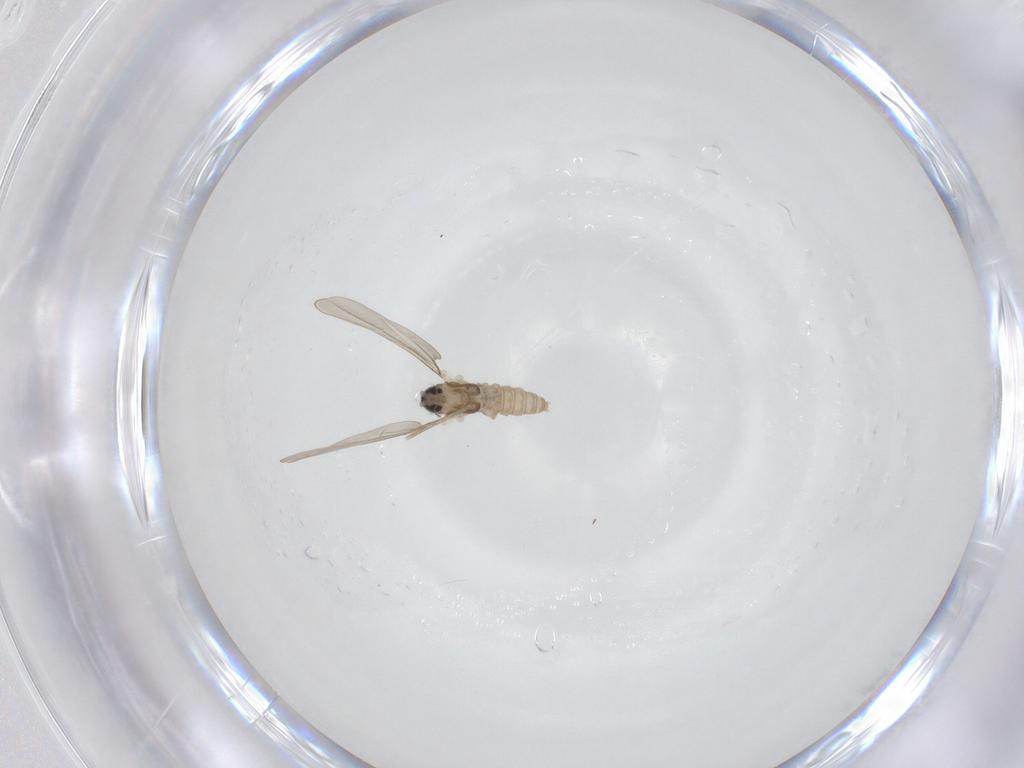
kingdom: Animalia
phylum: Arthropoda
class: Insecta
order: Diptera
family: Cecidomyiidae
